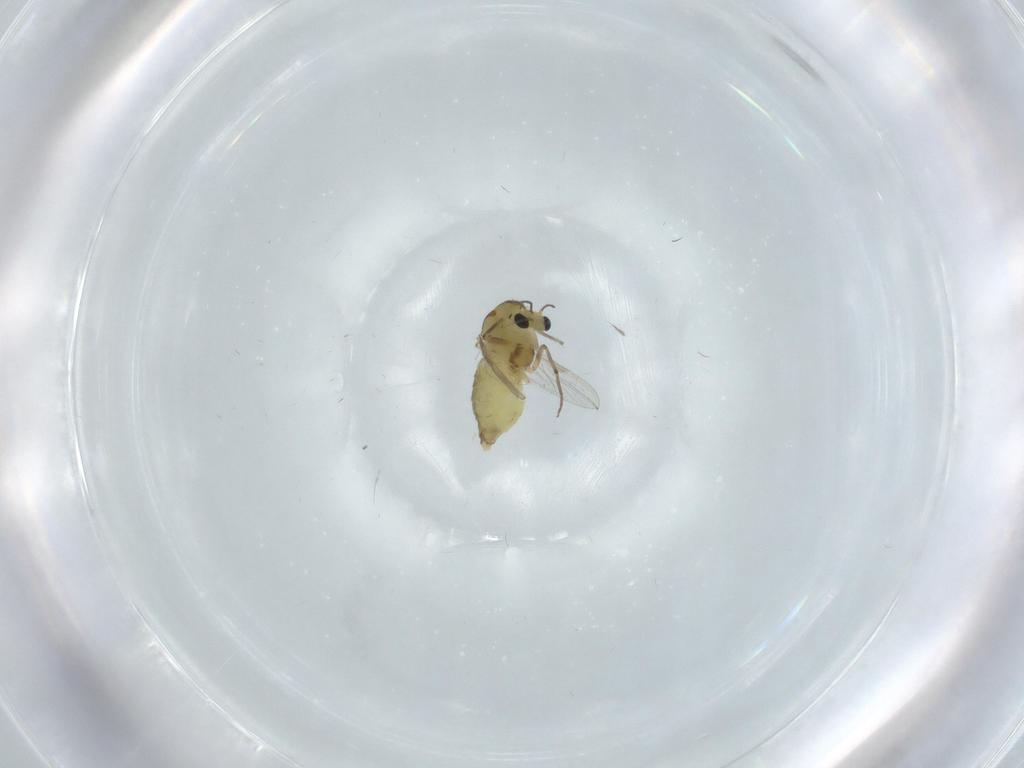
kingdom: Animalia
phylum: Arthropoda
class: Insecta
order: Diptera
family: Chironomidae
